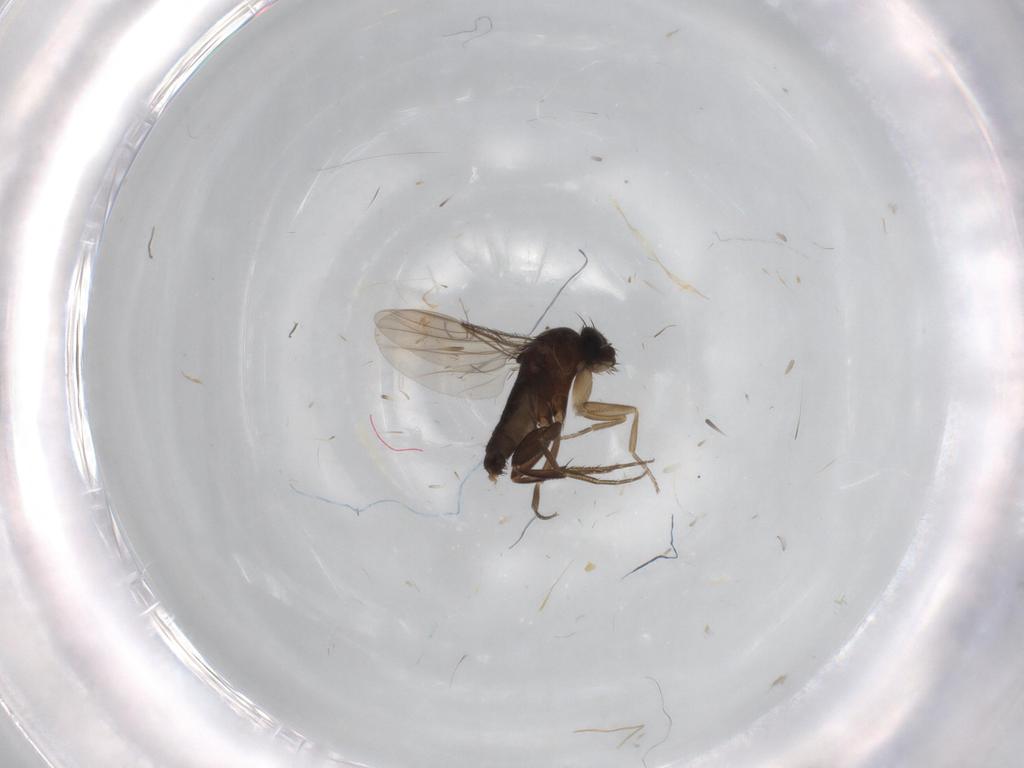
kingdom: Animalia
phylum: Arthropoda
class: Insecta
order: Diptera
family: Phoridae
